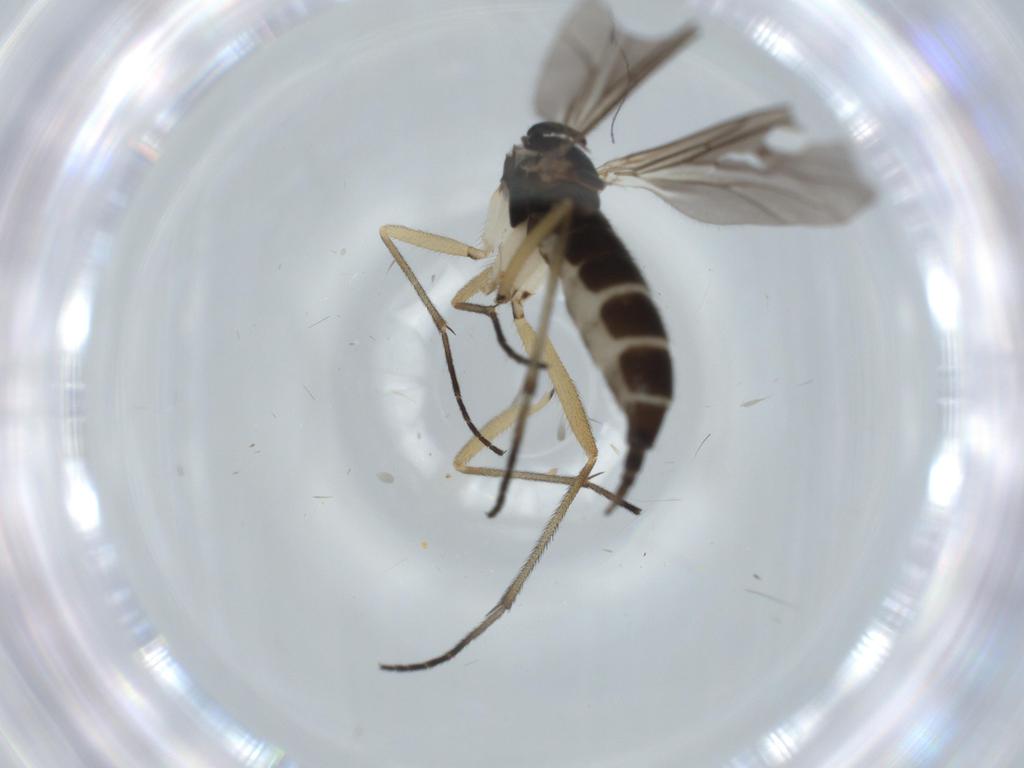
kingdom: Animalia
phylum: Arthropoda
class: Insecta
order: Diptera
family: Sciaridae
